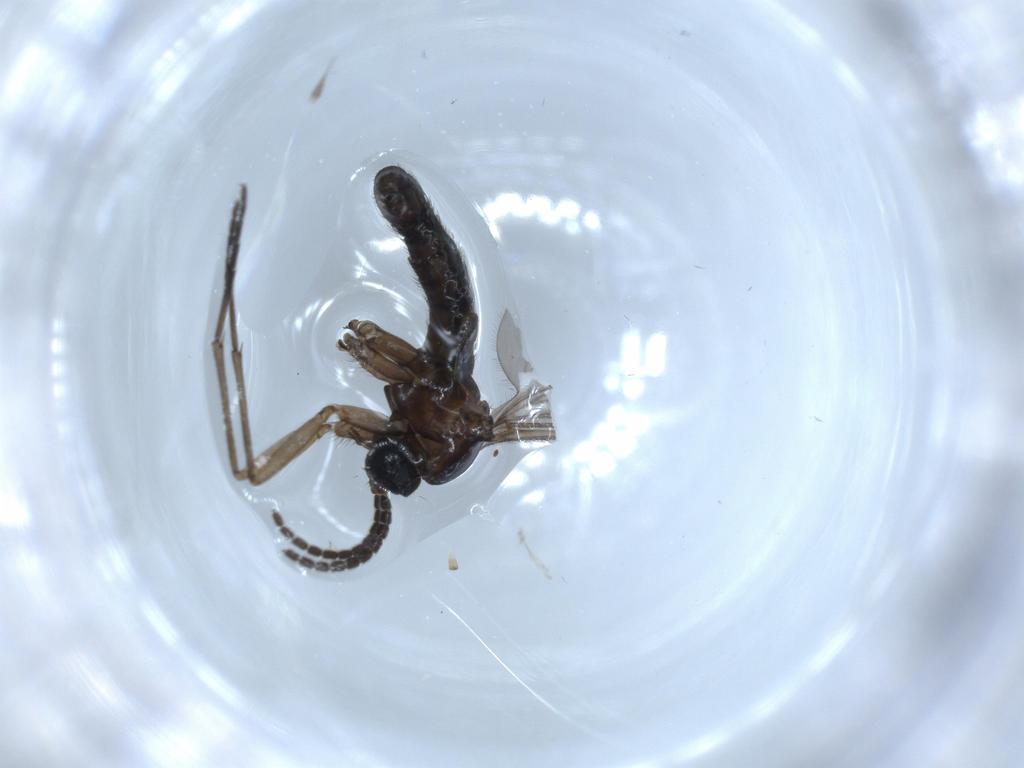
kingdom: Animalia
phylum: Arthropoda
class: Insecta
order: Diptera
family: Sciaridae
